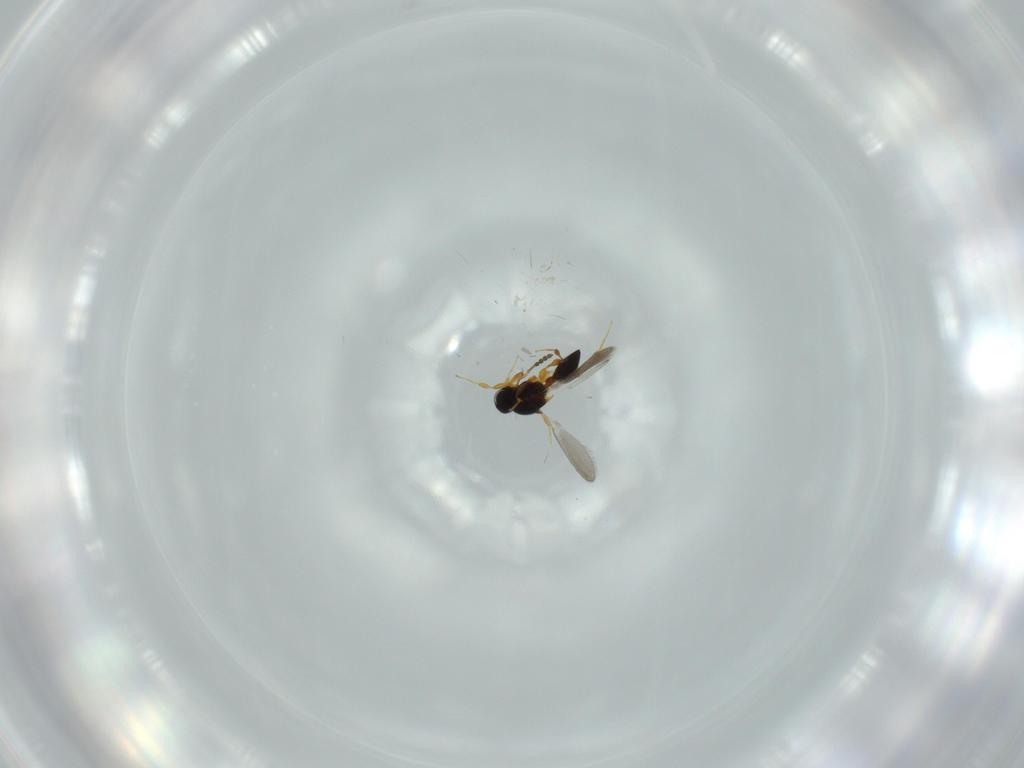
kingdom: Animalia
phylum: Arthropoda
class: Insecta
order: Hymenoptera
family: Platygastridae
